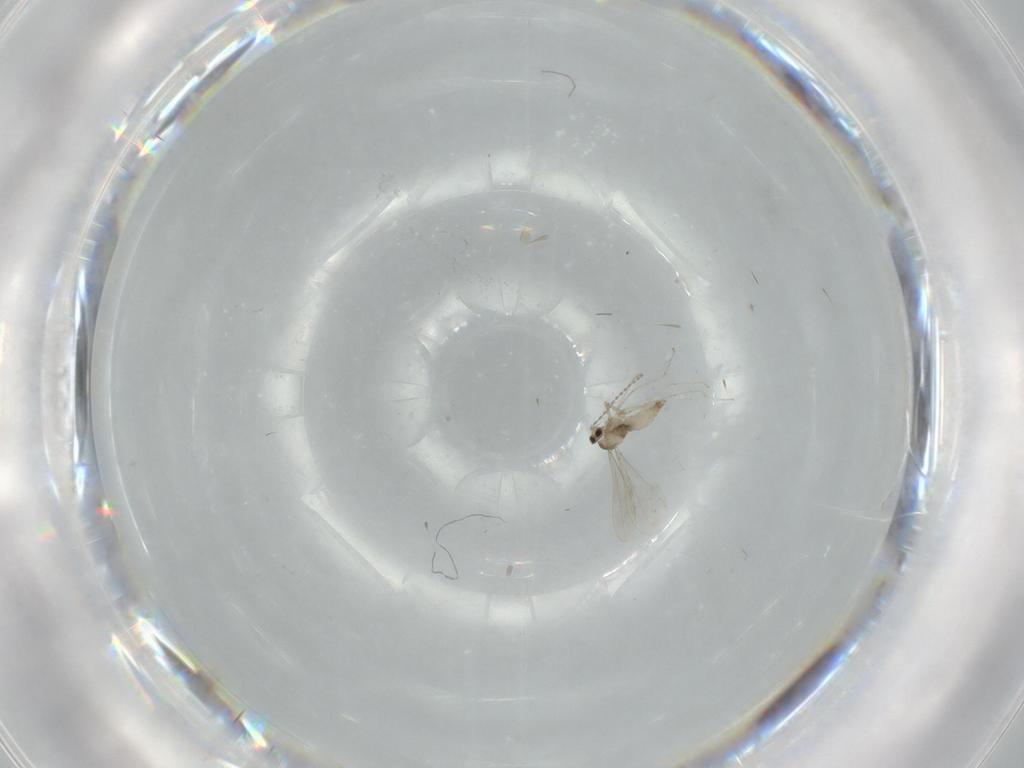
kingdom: Animalia
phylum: Arthropoda
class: Insecta
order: Diptera
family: Cecidomyiidae
